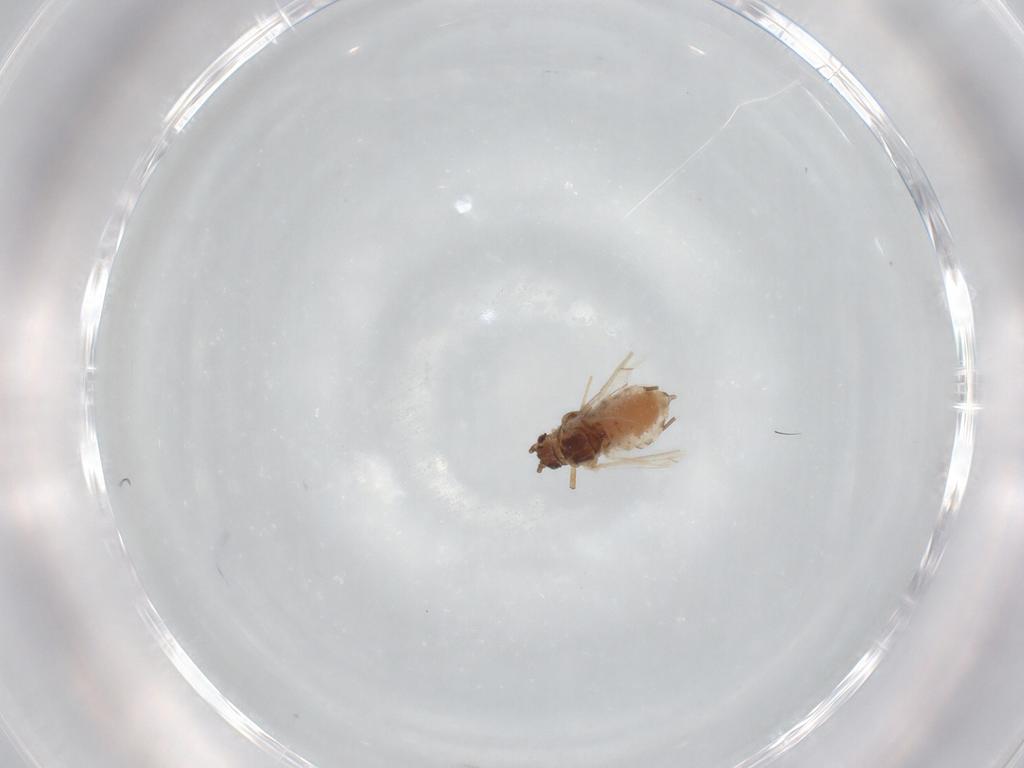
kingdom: Animalia
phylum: Arthropoda
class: Insecta
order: Hemiptera
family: Aphididae
